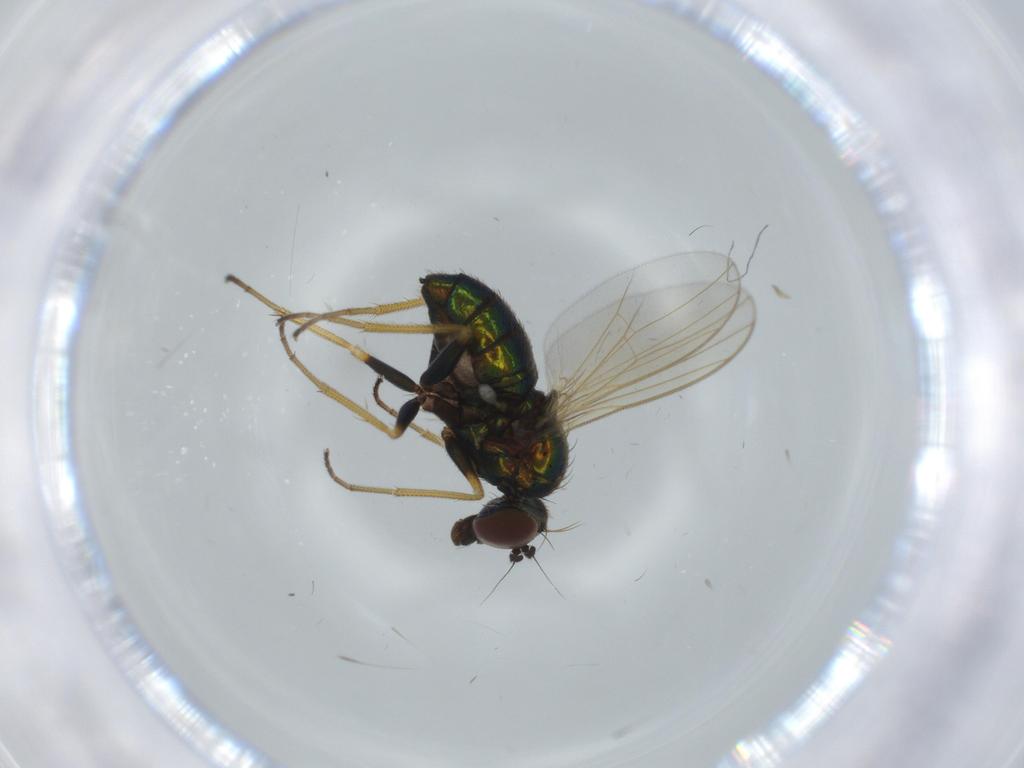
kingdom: Animalia
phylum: Arthropoda
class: Insecta
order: Diptera
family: Dolichopodidae
